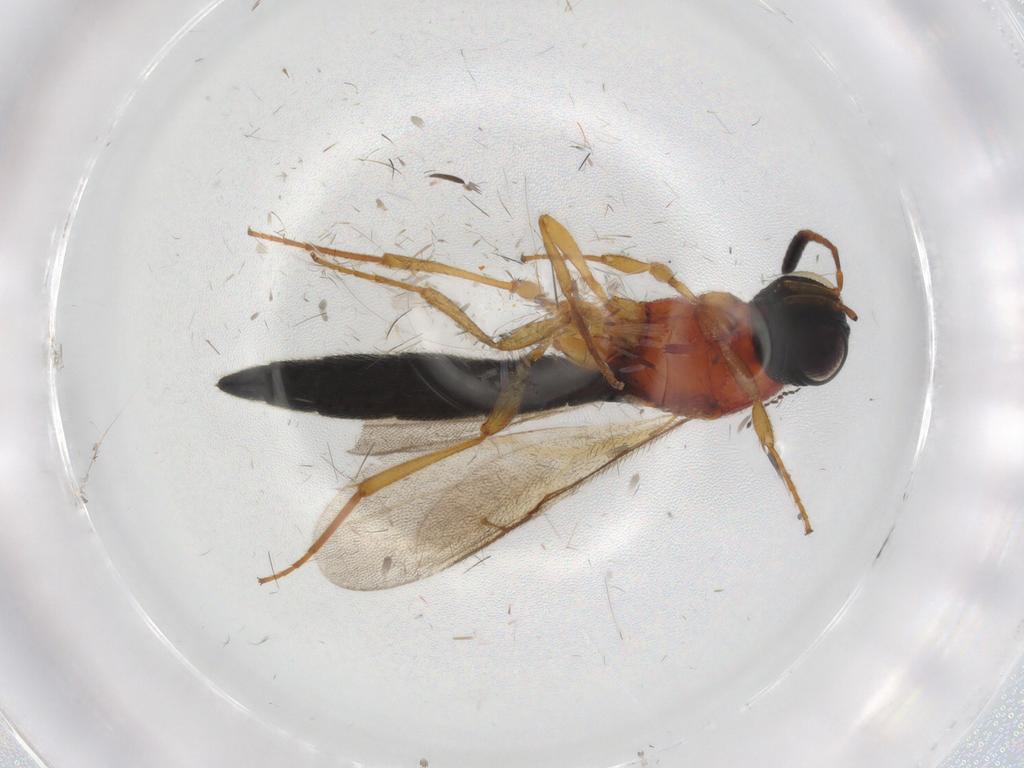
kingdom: Animalia
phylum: Arthropoda
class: Insecta
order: Hymenoptera
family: Scelionidae
